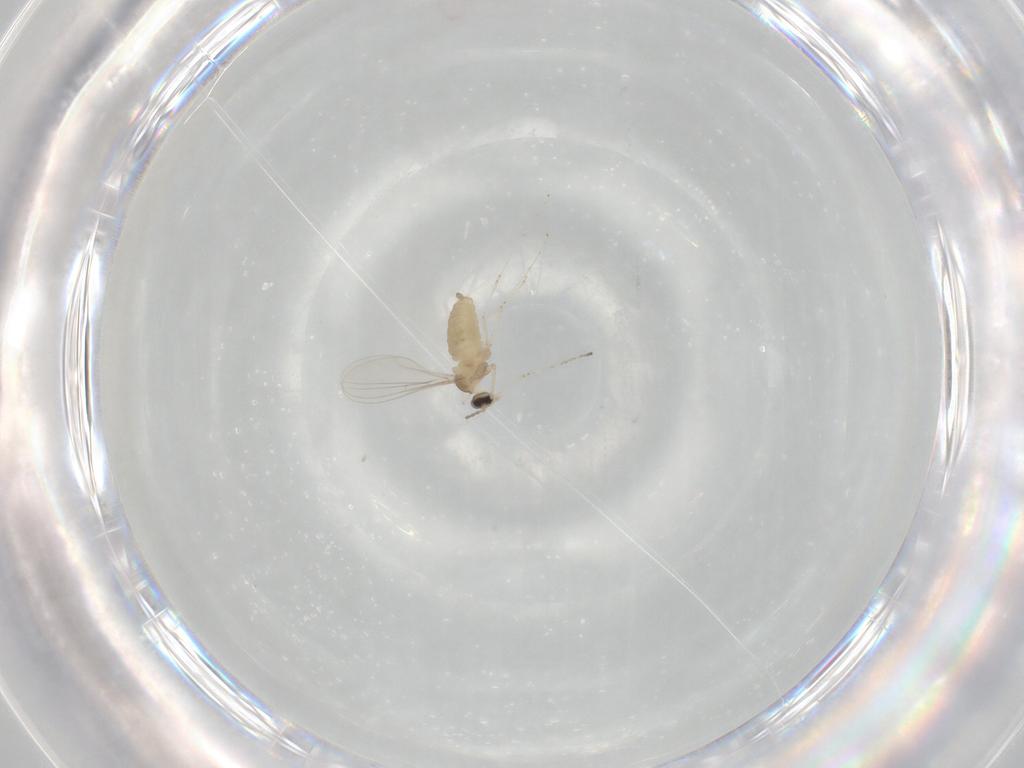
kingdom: Animalia
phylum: Arthropoda
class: Insecta
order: Diptera
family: Cecidomyiidae
